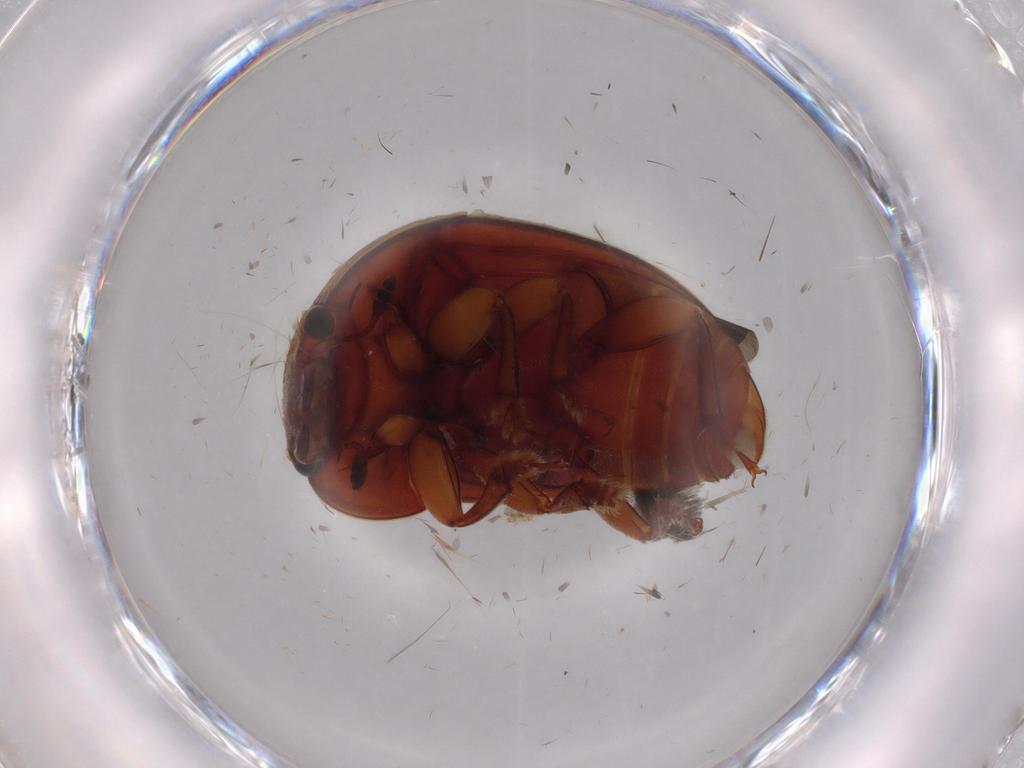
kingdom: Animalia
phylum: Arthropoda
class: Insecta
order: Coleoptera
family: Nitidulidae
